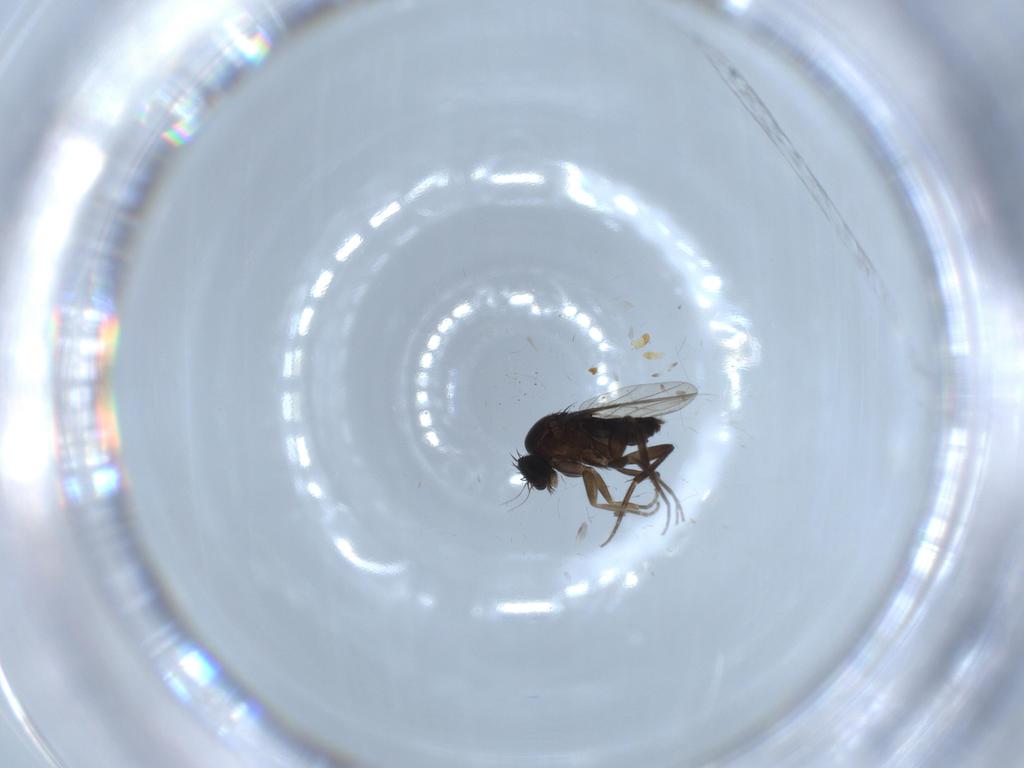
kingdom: Animalia
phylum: Arthropoda
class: Insecta
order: Diptera
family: Phoridae
